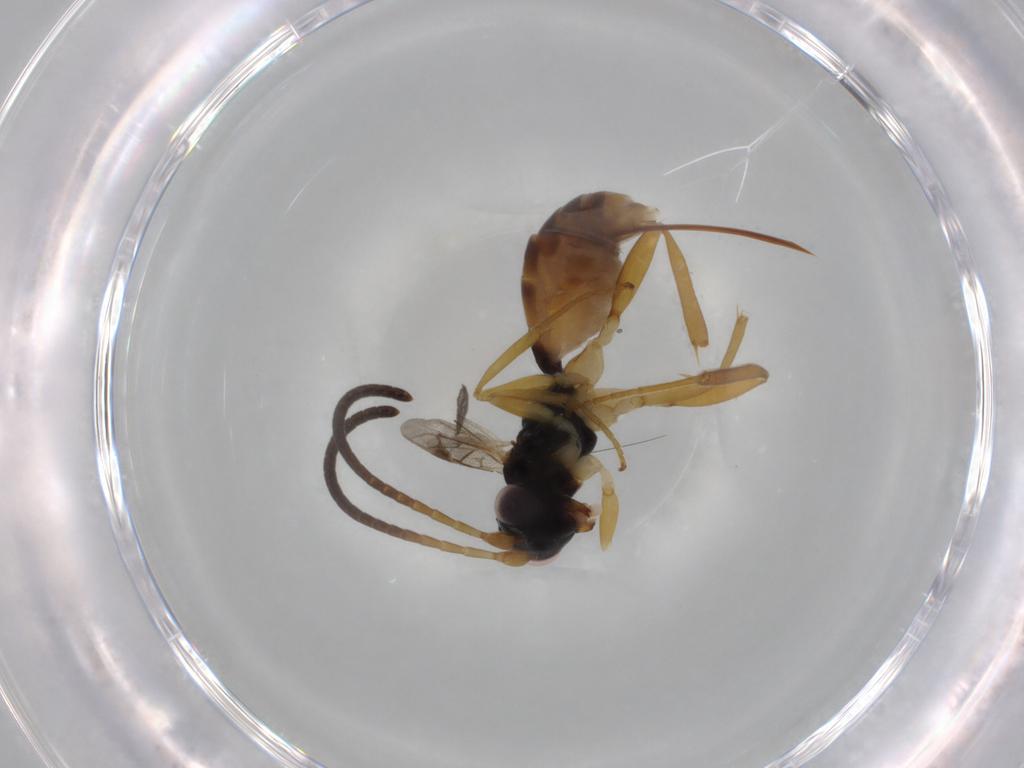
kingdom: Animalia
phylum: Arthropoda
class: Insecta
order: Hymenoptera
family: Ichneumonidae
